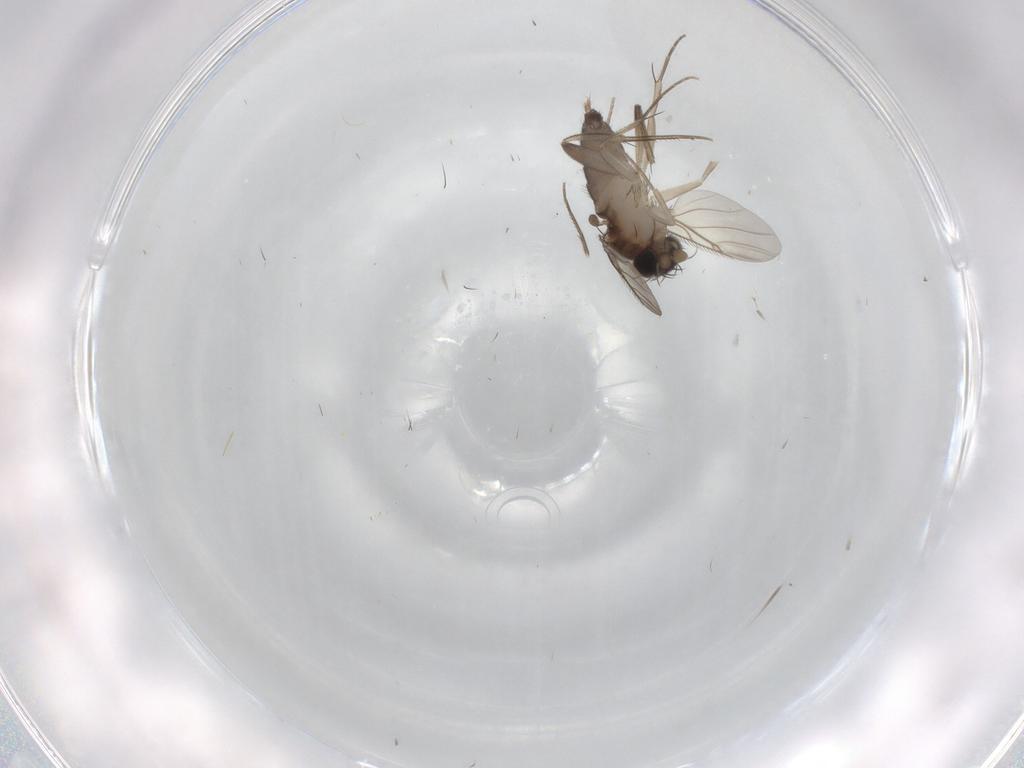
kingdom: Animalia
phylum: Arthropoda
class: Insecta
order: Diptera
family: Phoridae
